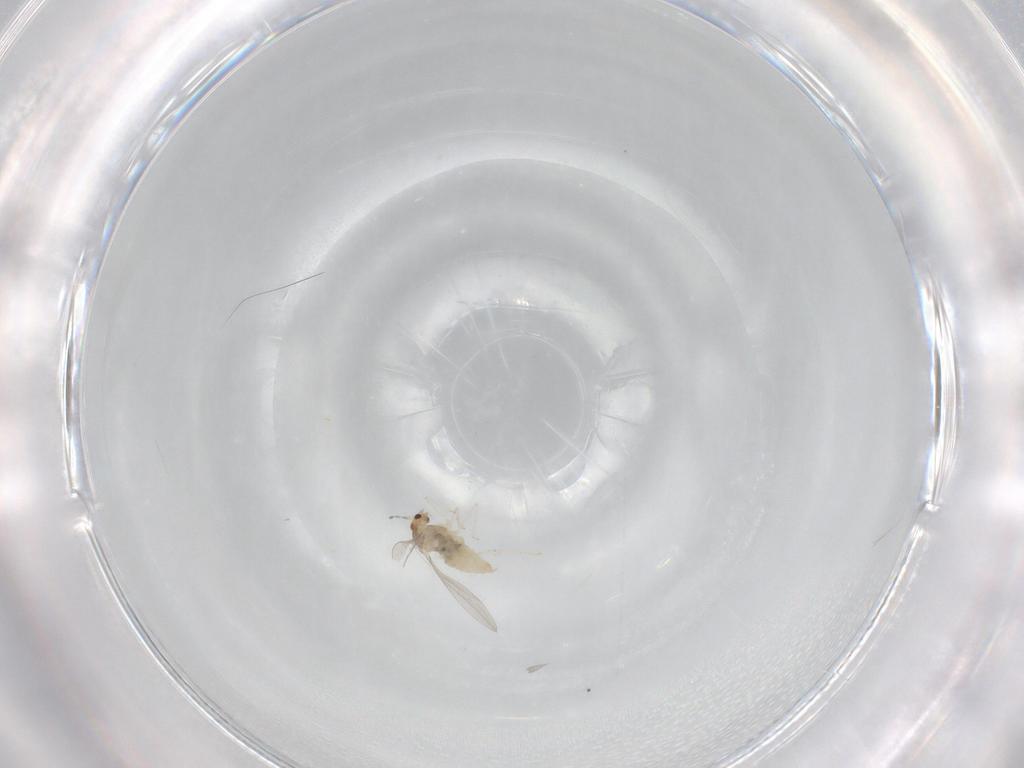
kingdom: Animalia
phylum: Arthropoda
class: Insecta
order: Diptera
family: Cecidomyiidae
